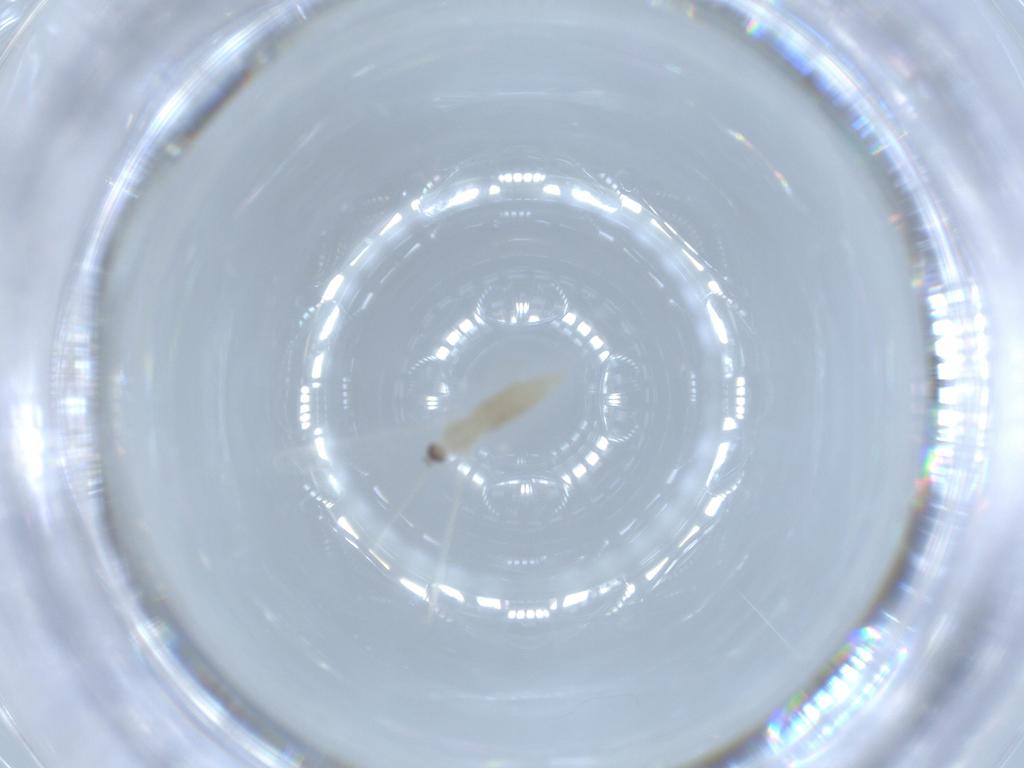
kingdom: Animalia
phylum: Arthropoda
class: Insecta
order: Diptera
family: Cecidomyiidae
